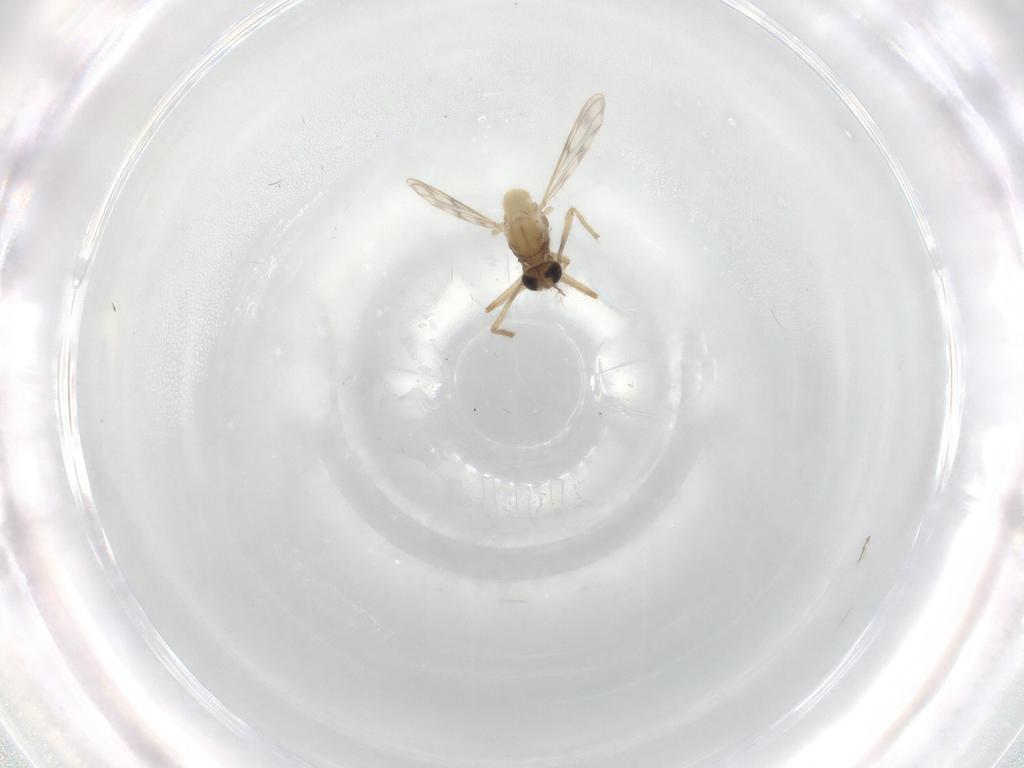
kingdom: Animalia
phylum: Arthropoda
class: Insecta
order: Diptera
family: Chironomidae
